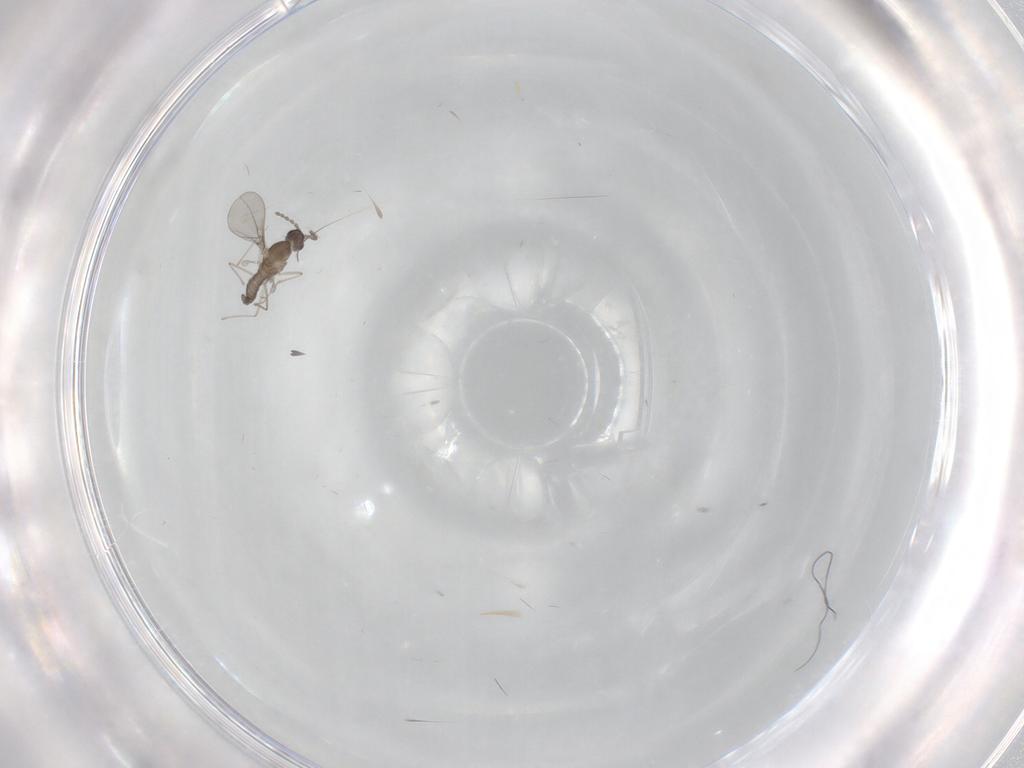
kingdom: Animalia
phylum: Arthropoda
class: Insecta
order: Diptera
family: Cecidomyiidae
